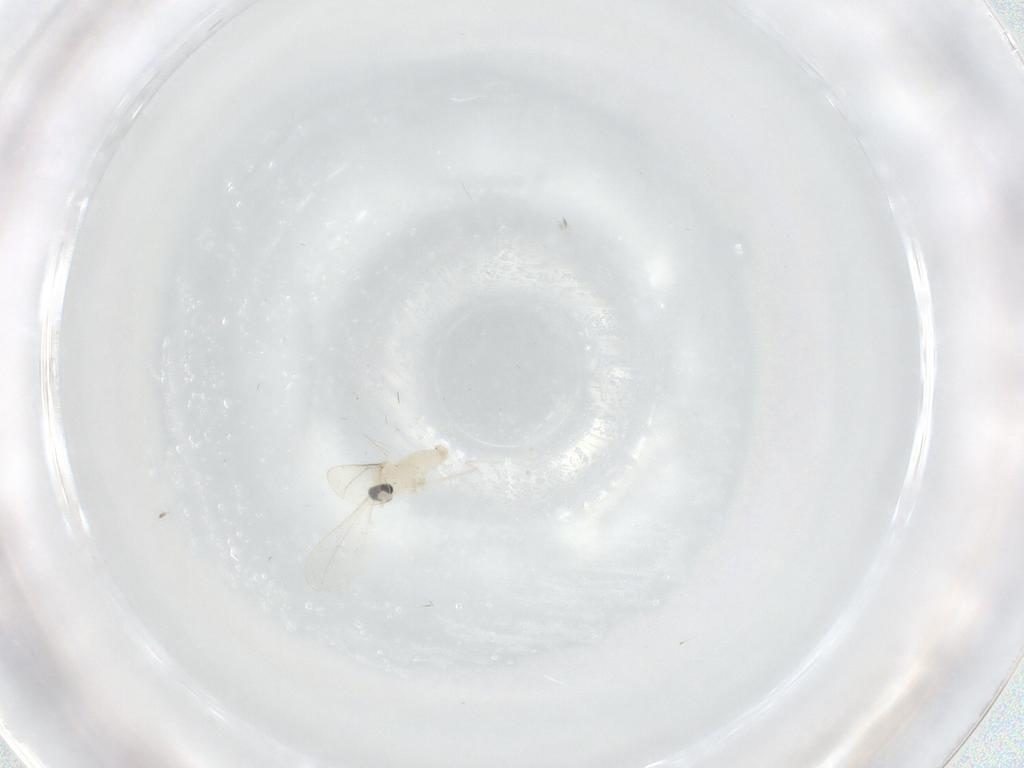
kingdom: Animalia
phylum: Arthropoda
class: Insecta
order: Diptera
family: Cecidomyiidae
